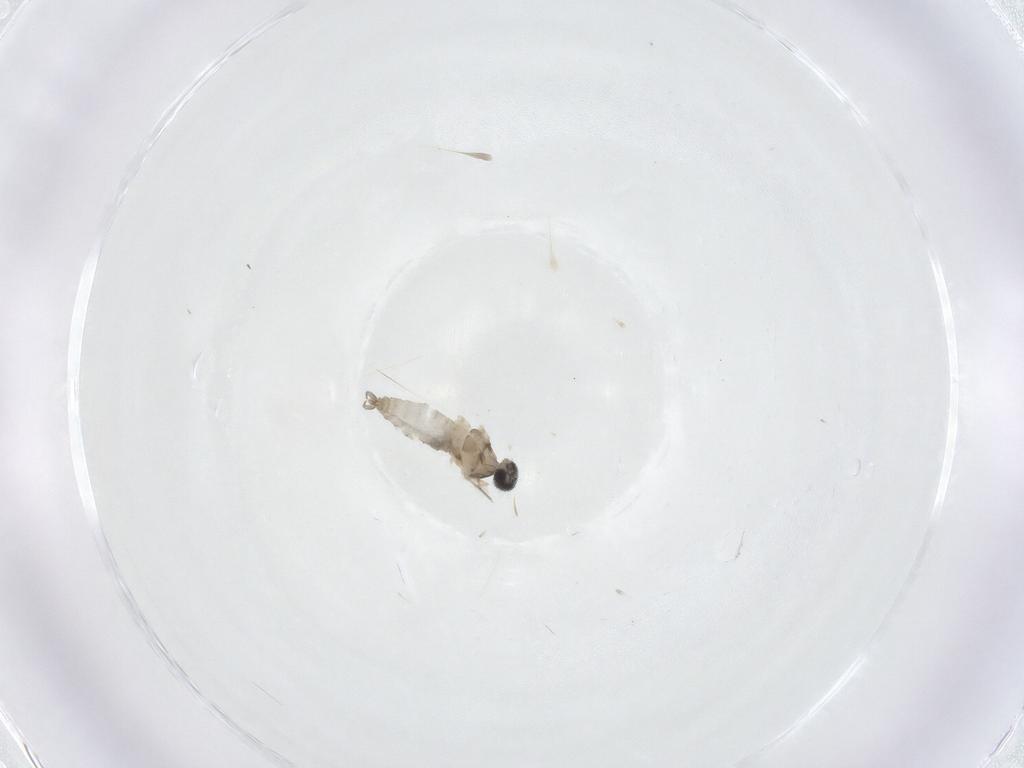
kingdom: Animalia
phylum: Arthropoda
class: Insecta
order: Diptera
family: Cecidomyiidae
